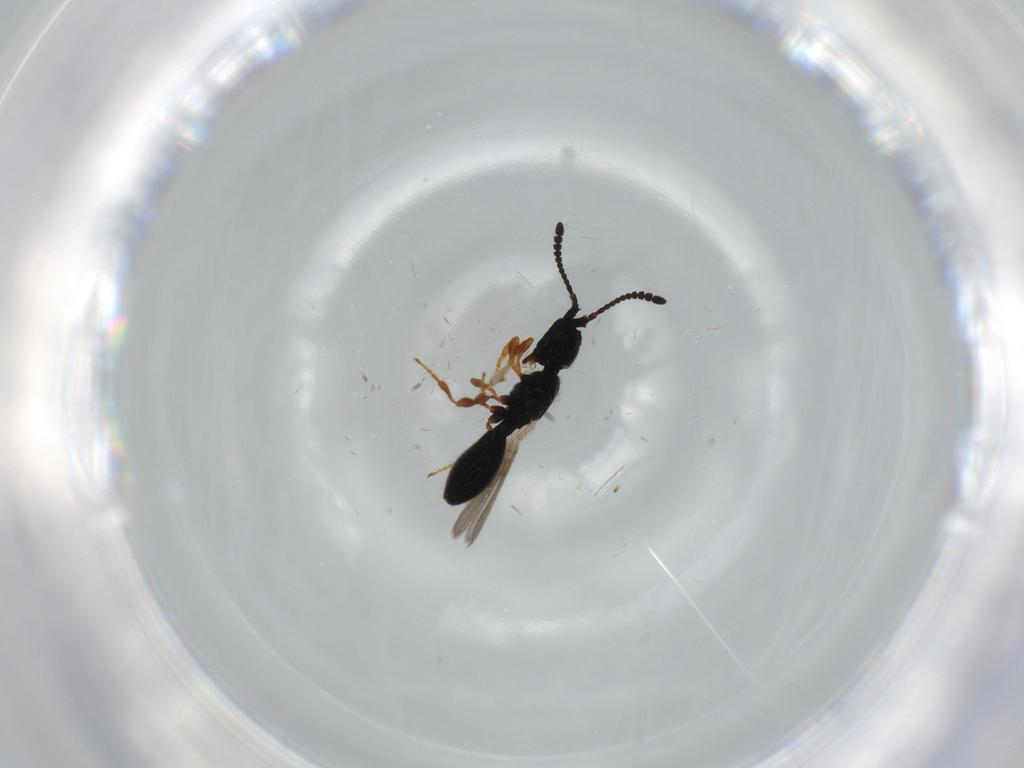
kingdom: Animalia
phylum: Arthropoda
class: Insecta
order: Hymenoptera
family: Diapriidae
